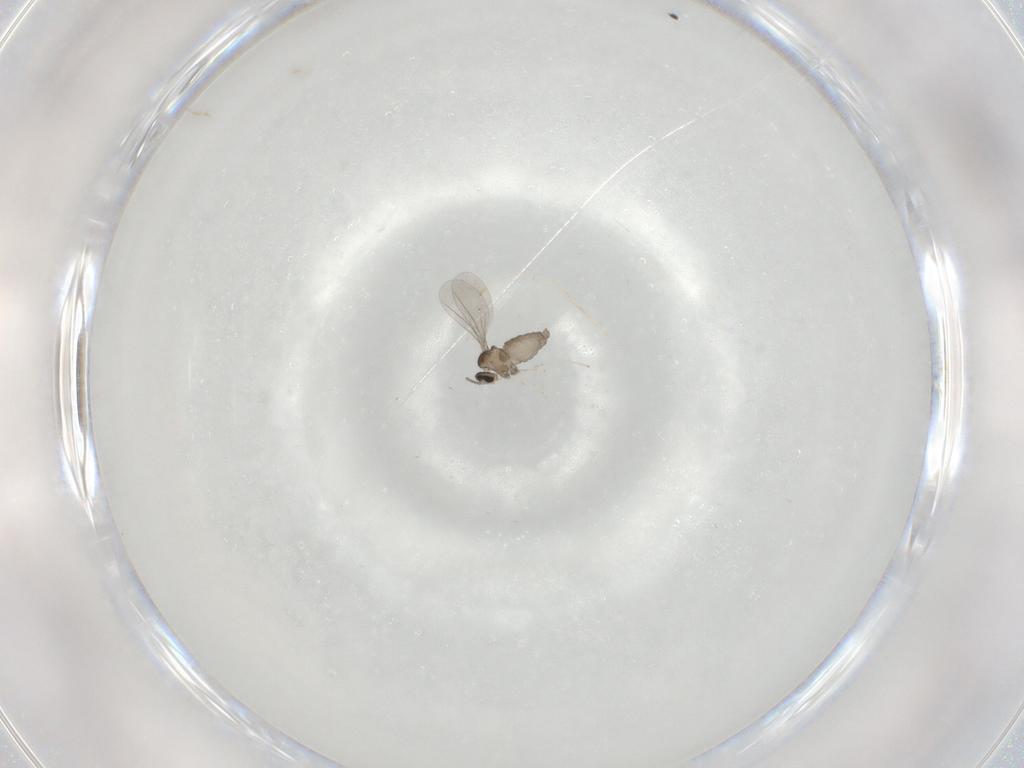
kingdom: Animalia
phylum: Arthropoda
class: Insecta
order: Diptera
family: Cecidomyiidae
